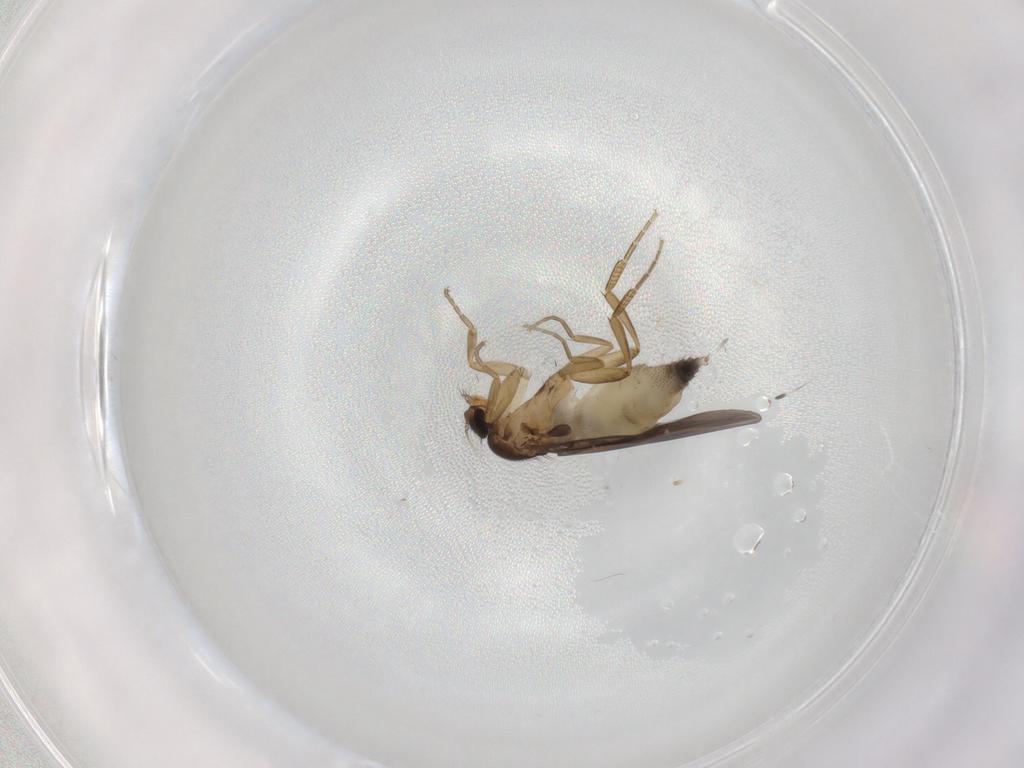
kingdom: Animalia
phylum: Arthropoda
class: Insecta
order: Diptera
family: Phoridae
